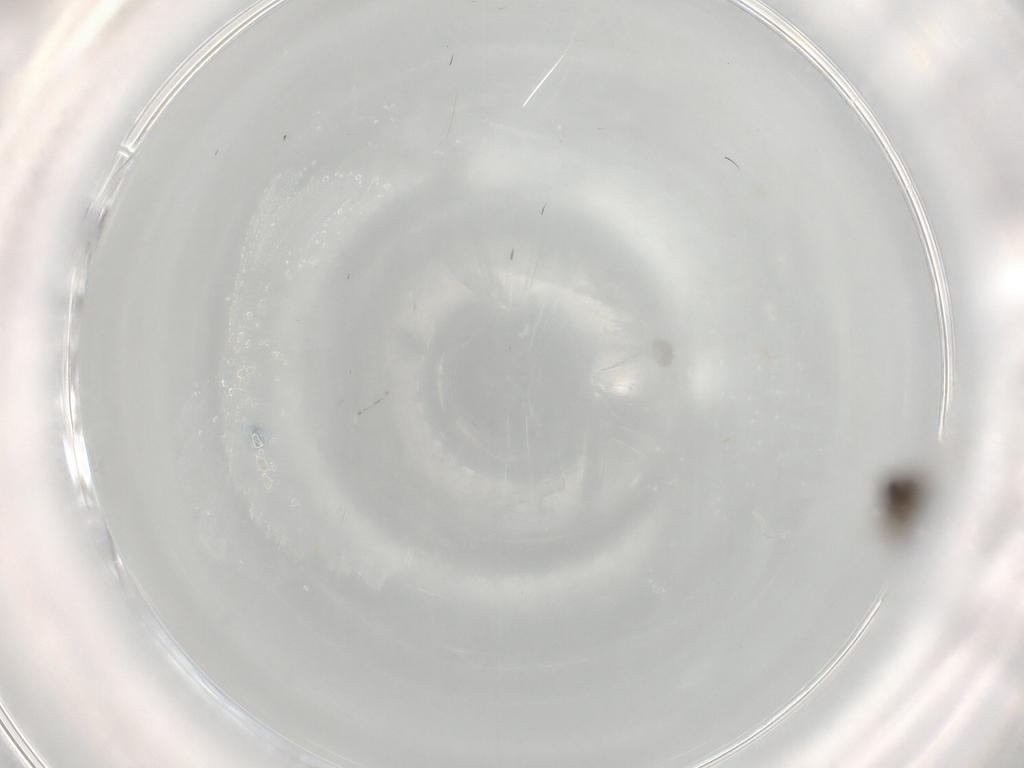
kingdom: Animalia
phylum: Arthropoda
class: Insecta
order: Diptera
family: Chironomidae
